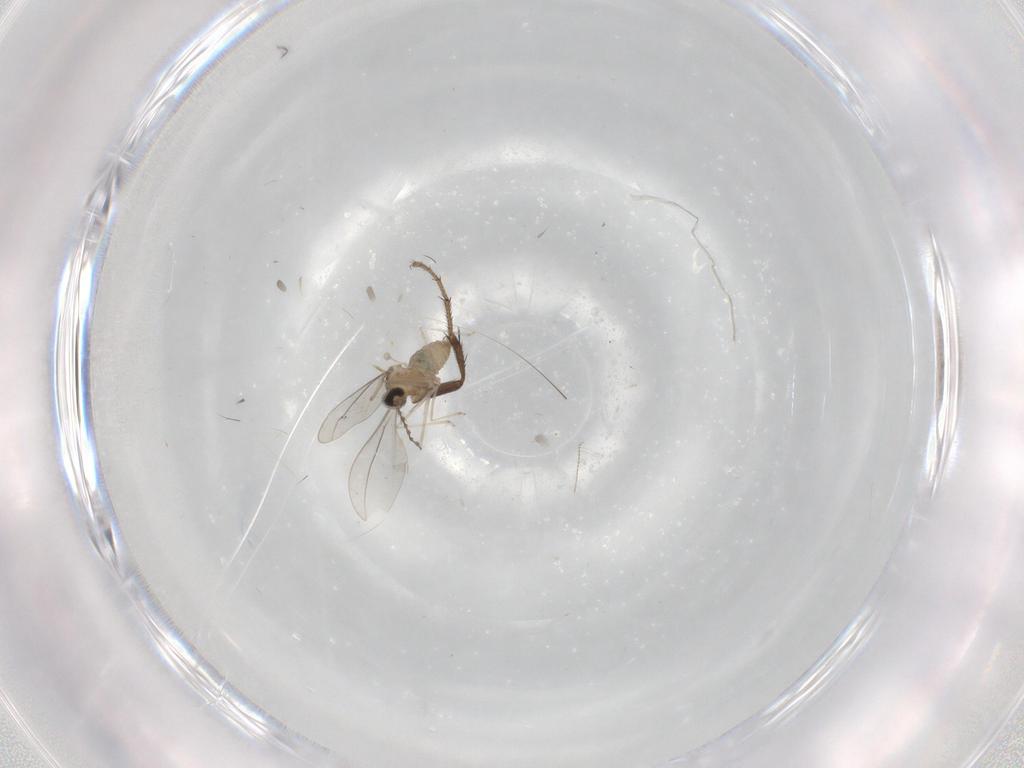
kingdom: Animalia
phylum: Arthropoda
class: Insecta
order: Diptera
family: Cecidomyiidae
